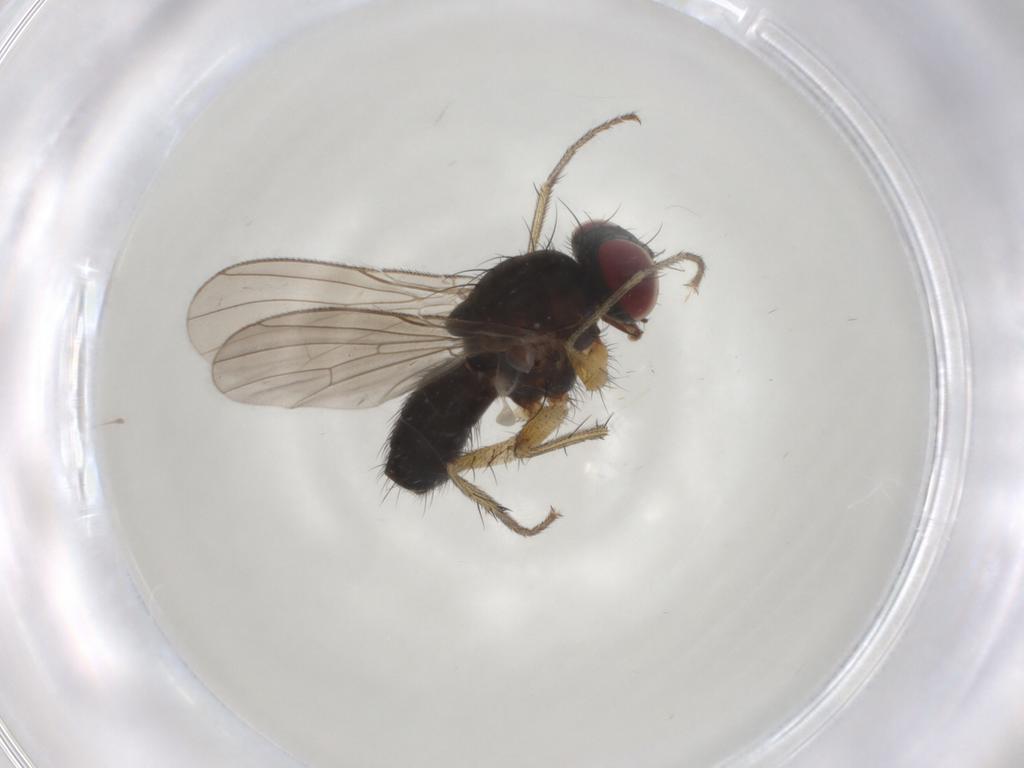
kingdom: Animalia
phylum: Arthropoda
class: Insecta
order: Diptera
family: Muscidae
